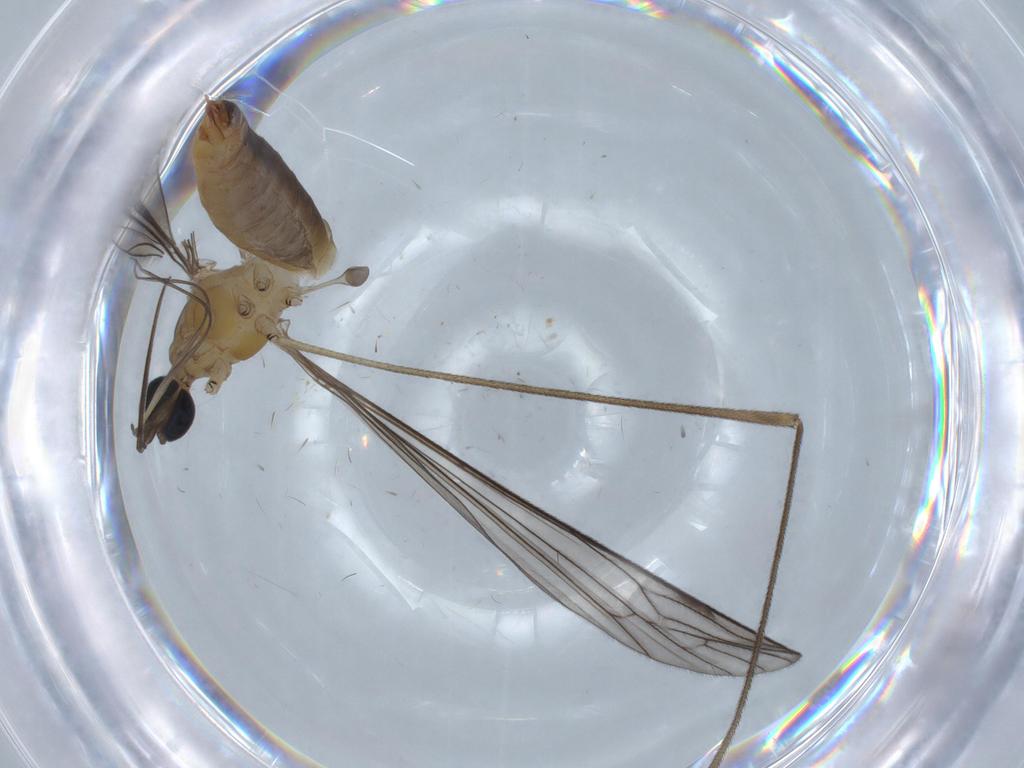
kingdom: Animalia
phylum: Arthropoda
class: Insecta
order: Diptera
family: Hybotidae
